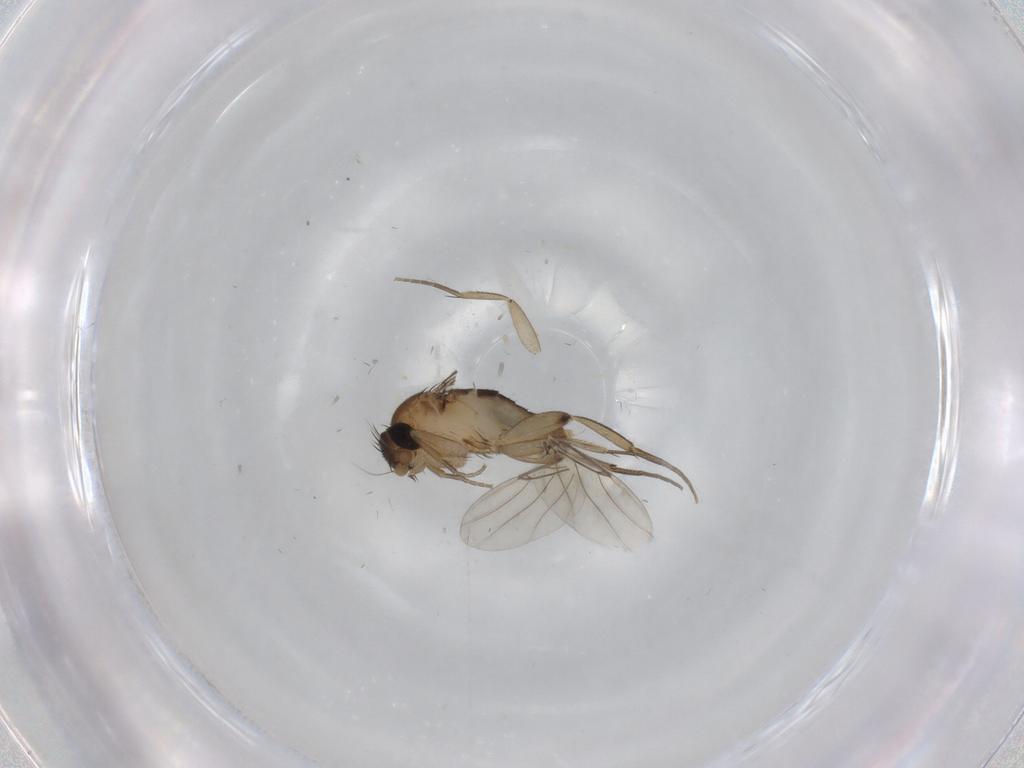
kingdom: Animalia
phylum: Arthropoda
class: Insecta
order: Diptera
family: Phoridae
